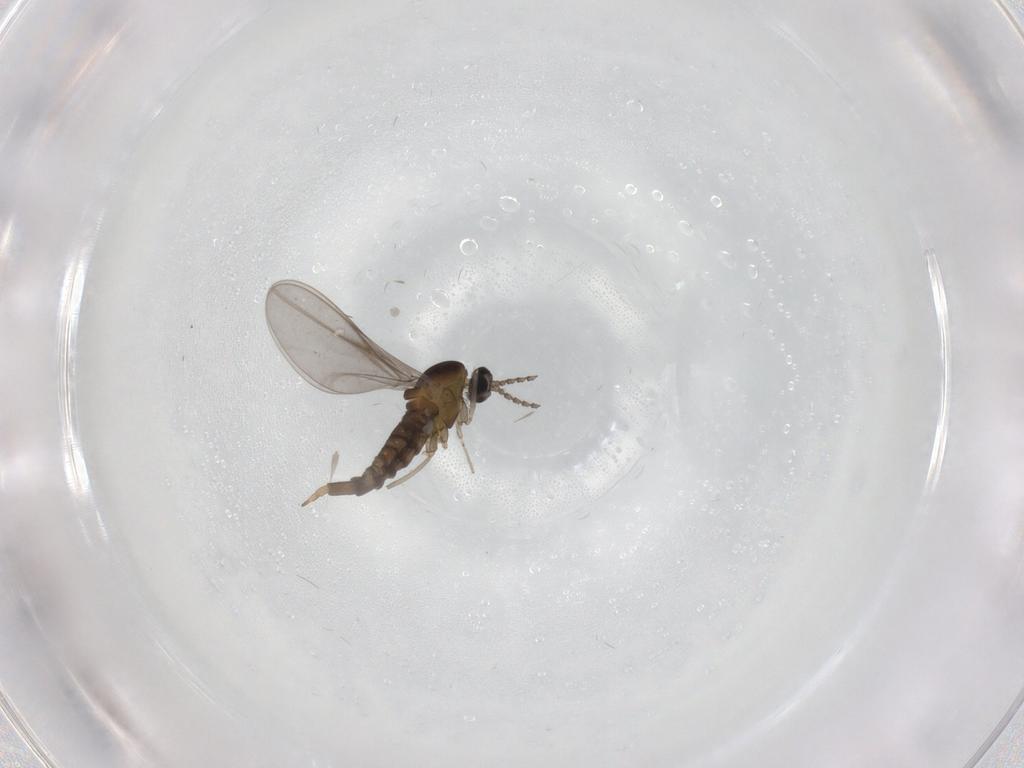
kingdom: Animalia
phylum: Arthropoda
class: Insecta
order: Diptera
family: Cecidomyiidae
